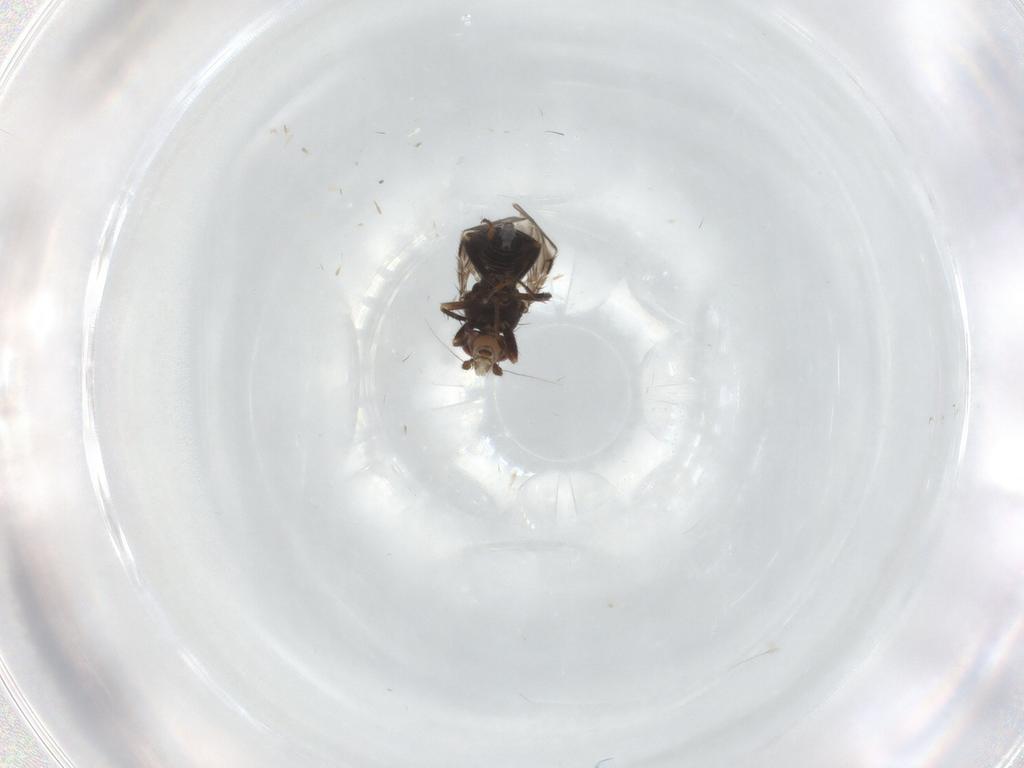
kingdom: Animalia
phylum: Arthropoda
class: Insecta
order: Diptera
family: Sphaeroceridae
